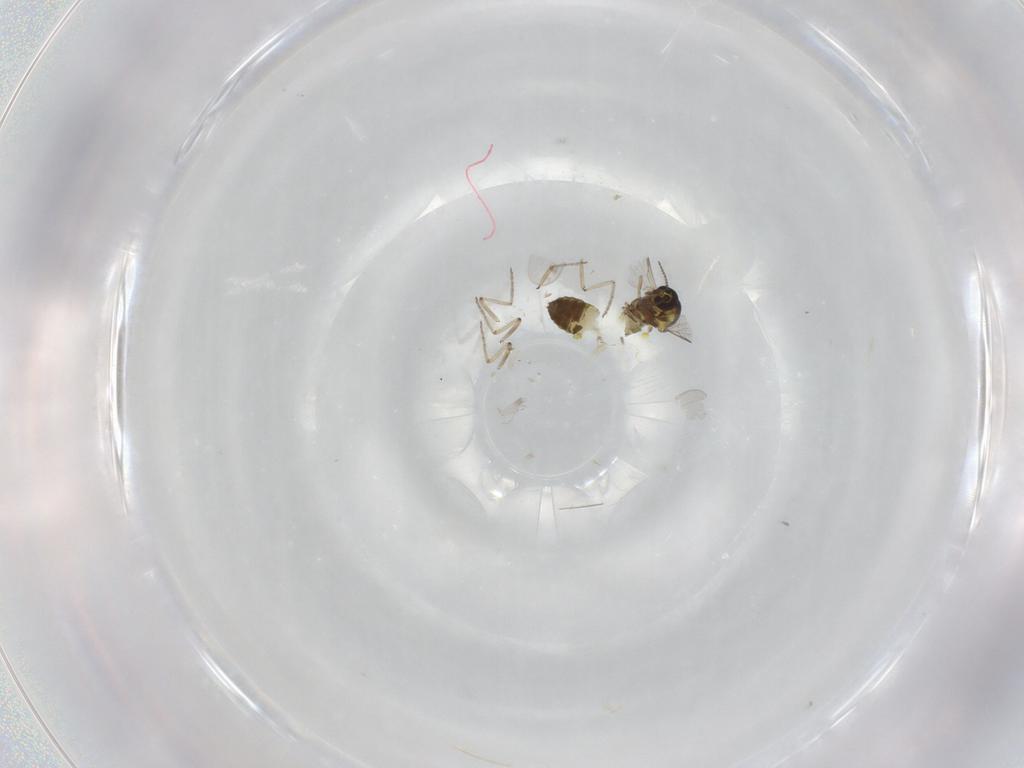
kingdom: Animalia
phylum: Arthropoda
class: Insecta
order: Diptera
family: Ceratopogonidae
